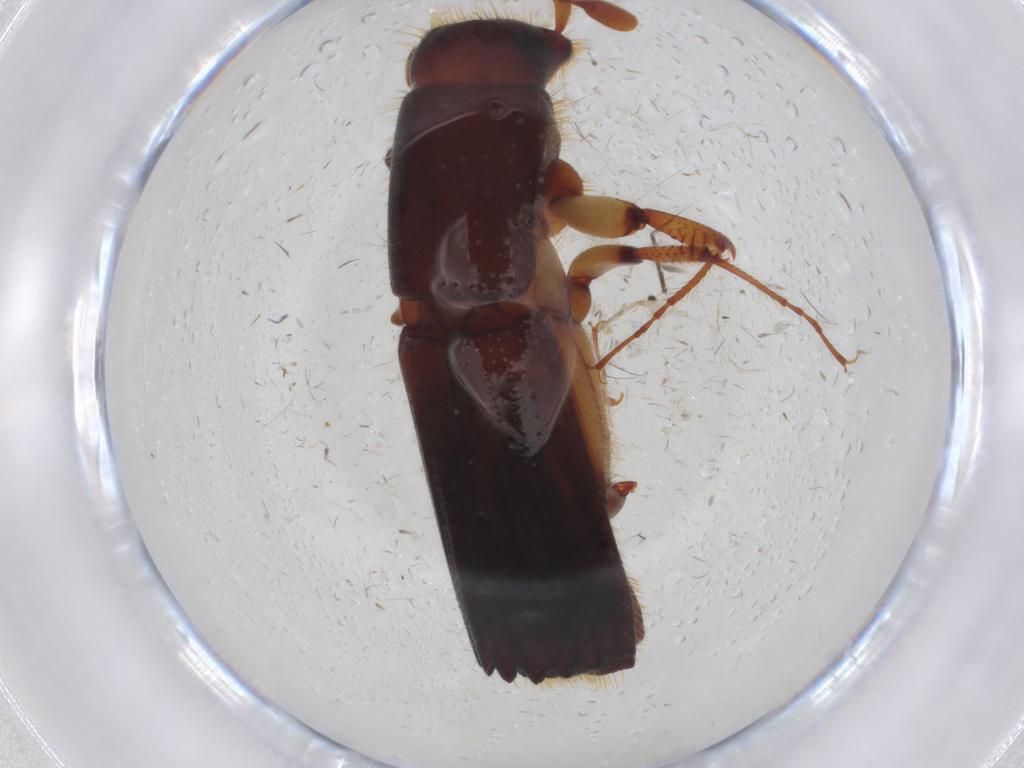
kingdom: Animalia
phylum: Arthropoda
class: Insecta
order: Coleoptera
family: Curculionidae
